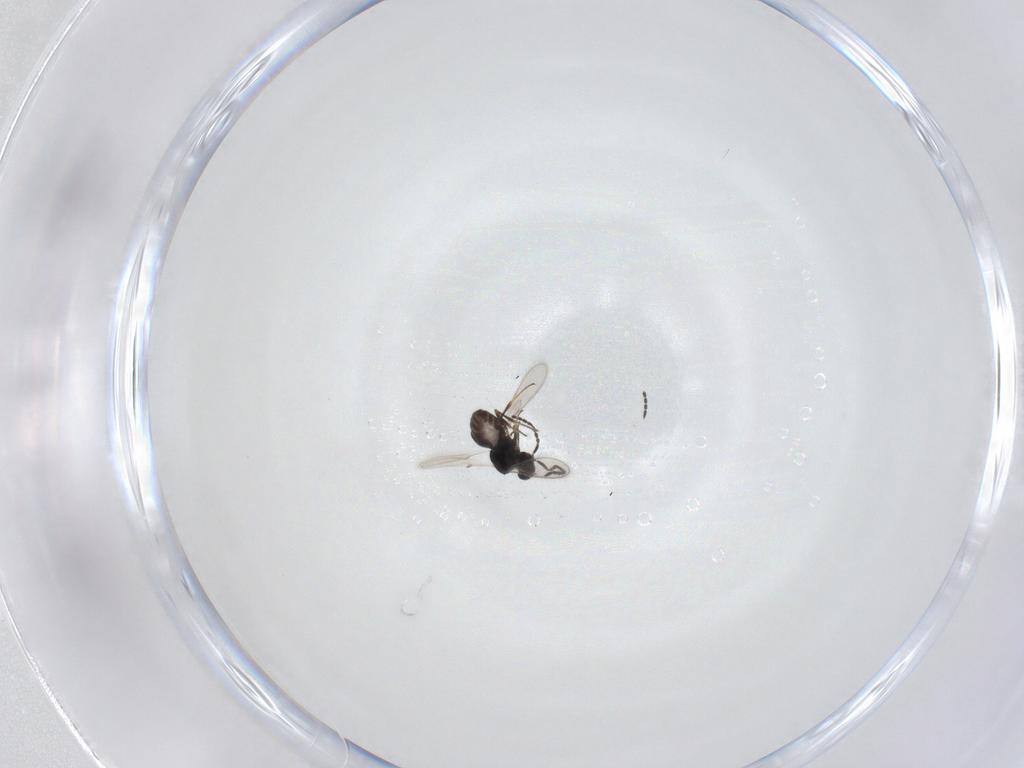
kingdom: Animalia
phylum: Arthropoda
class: Insecta
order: Hymenoptera
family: Scelionidae
